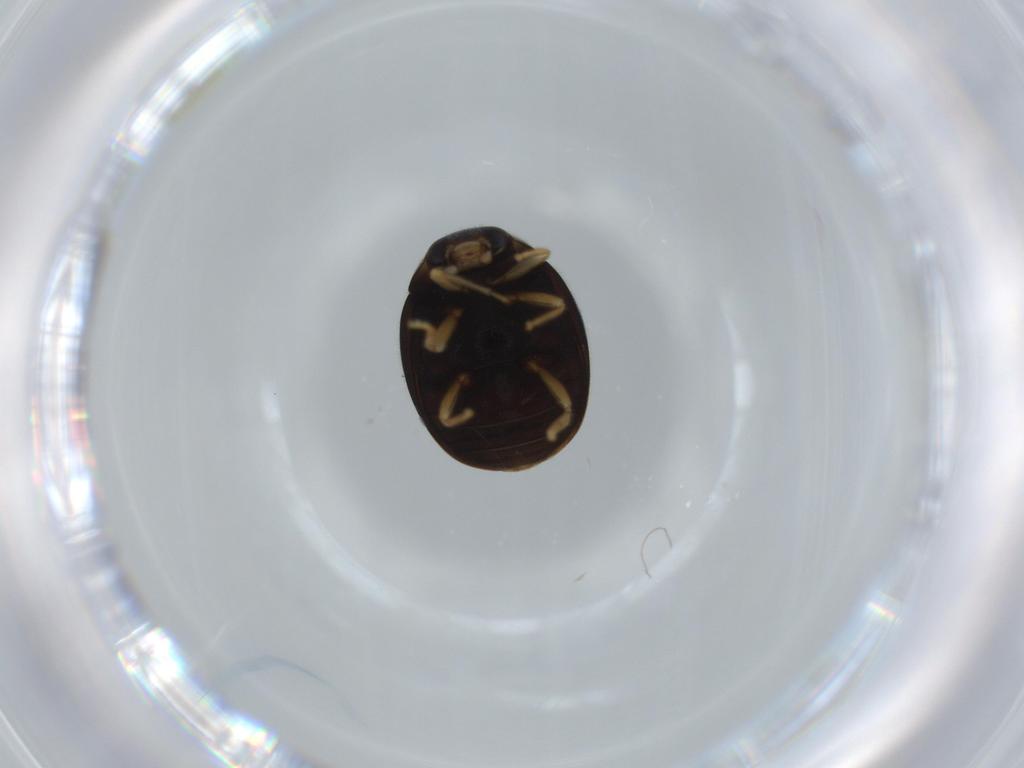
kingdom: Animalia
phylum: Arthropoda
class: Insecta
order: Coleoptera
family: Coccinellidae
